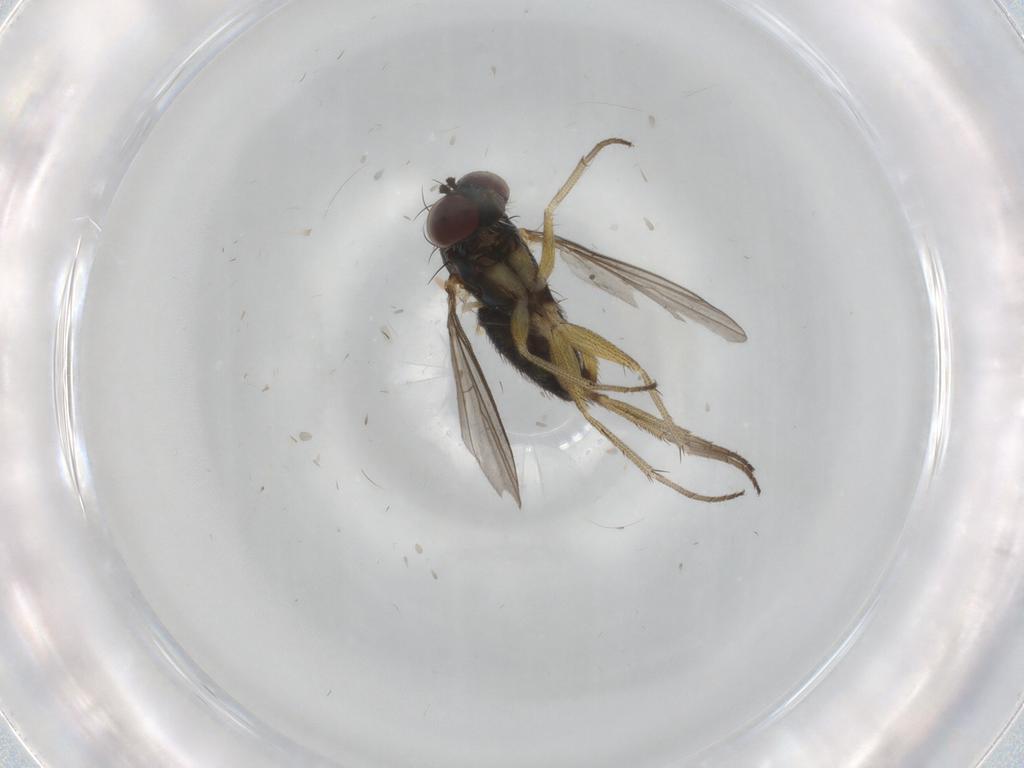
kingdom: Animalia
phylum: Arthropoda
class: Insecta
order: Diptera
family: Dolichopodidae
